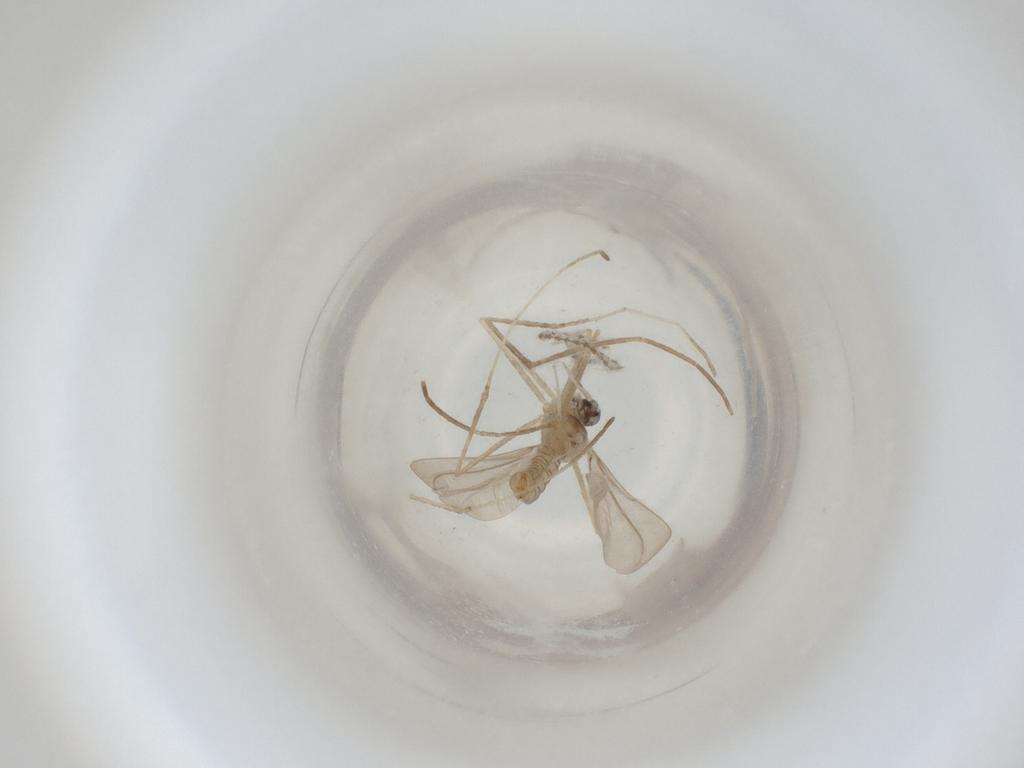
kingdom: Animalia
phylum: Arthropoda
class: Insecta
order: Diptera
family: Cecidomyiidae
